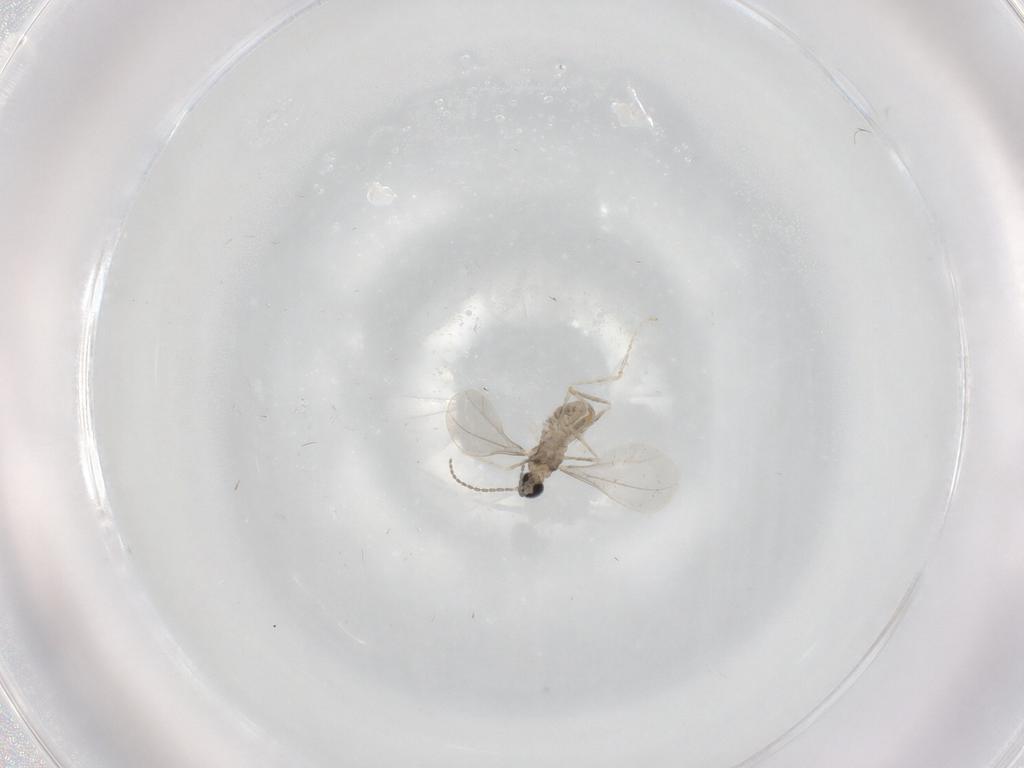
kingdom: Animalia
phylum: Arthropoda
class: Insecta
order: Diptera
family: Cecidomyiidae
